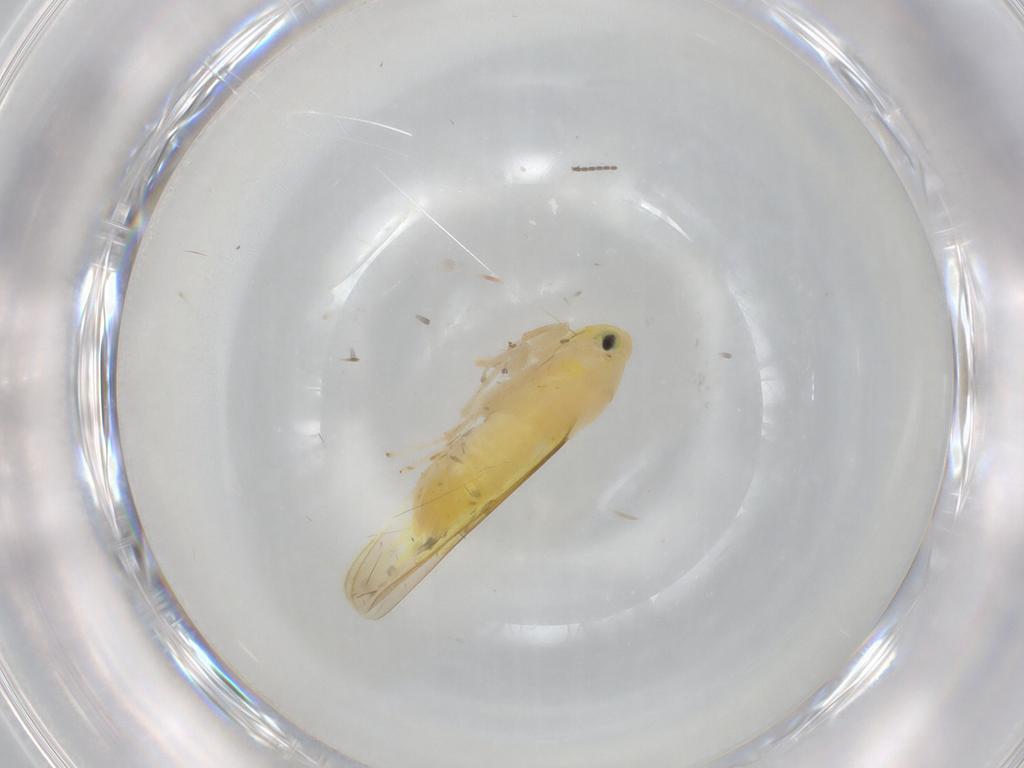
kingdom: Animalia
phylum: Arthropoda
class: Insecta
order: Hemiptera
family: Cicadellidae
